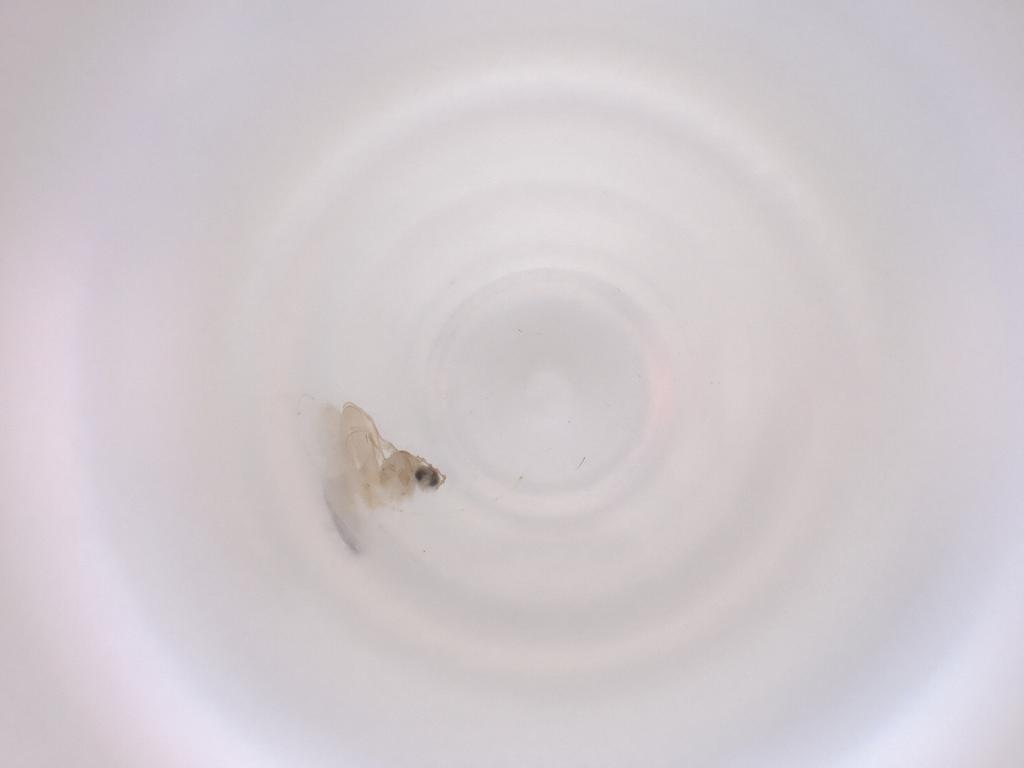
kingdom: Animalia
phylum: Arthropoda
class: Insecta
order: Diptera
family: Cecidomyiidae
